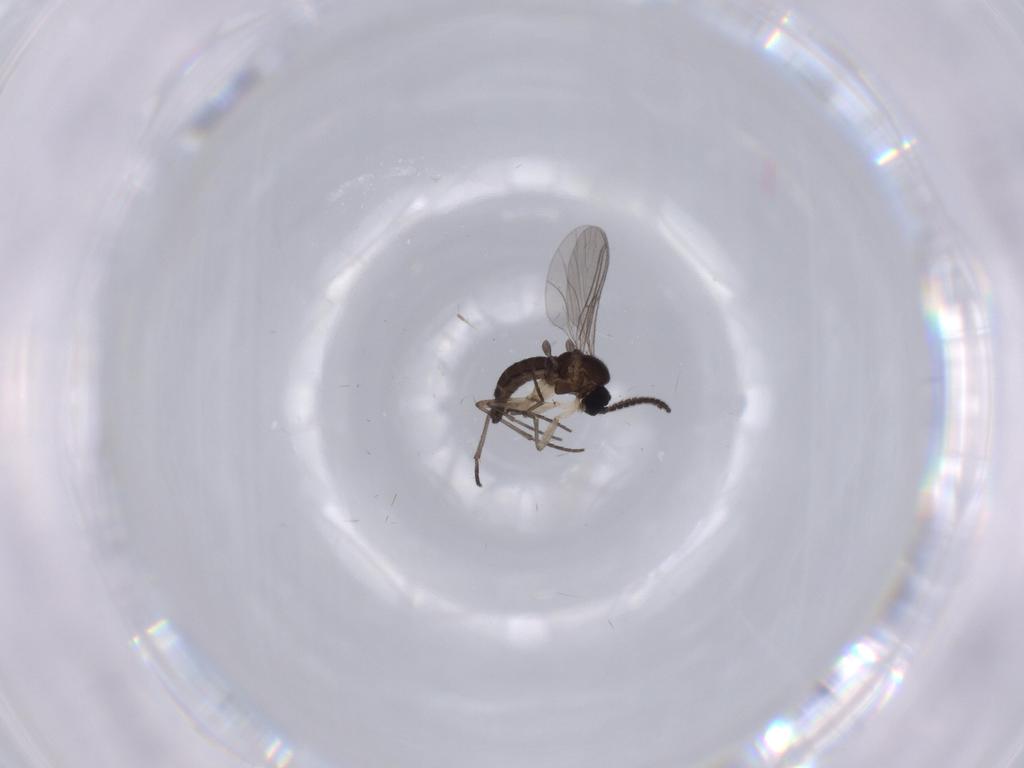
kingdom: Animalia
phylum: Arthropoda
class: Insecta
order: Diptera
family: Sciaridae
